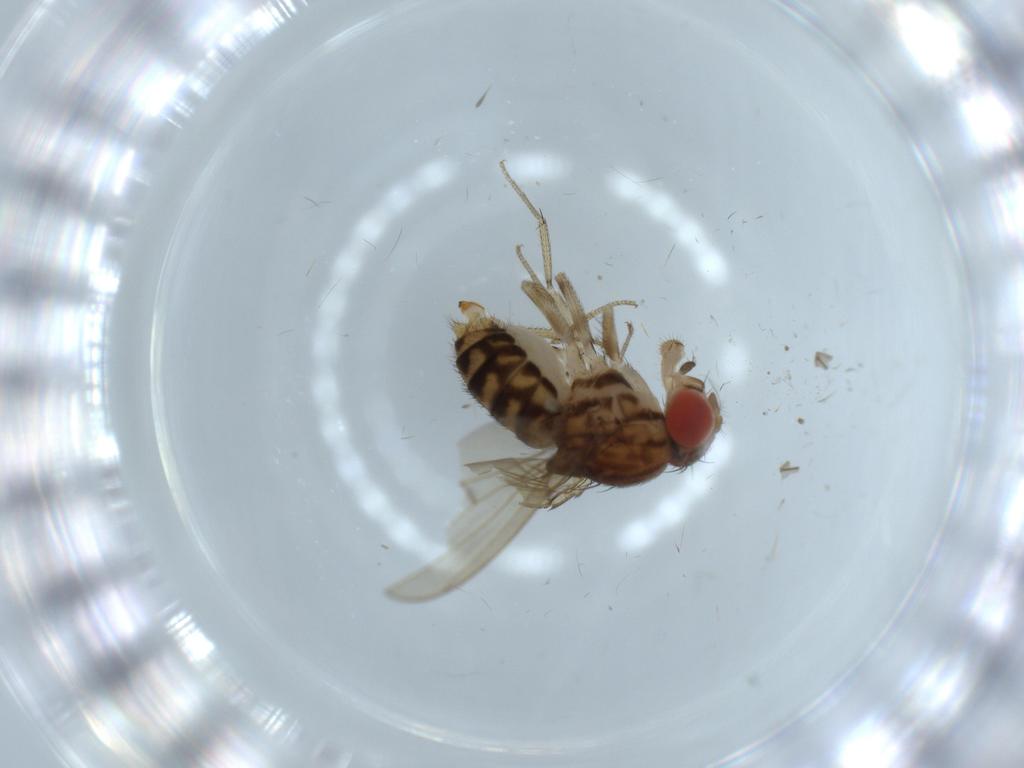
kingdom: Animalia
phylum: Arthropoda
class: Insecta
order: Diptera
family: Drosophilidae
